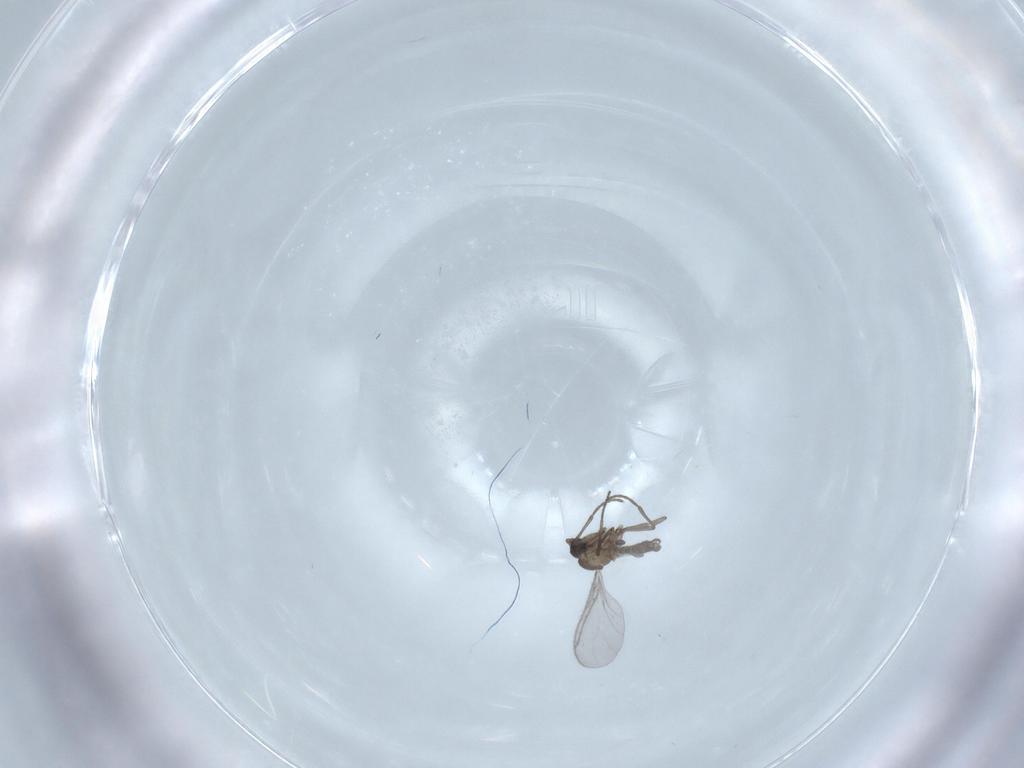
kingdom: Animalia
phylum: Arthropoda
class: Insecta
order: Diptera
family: Sciaridae
